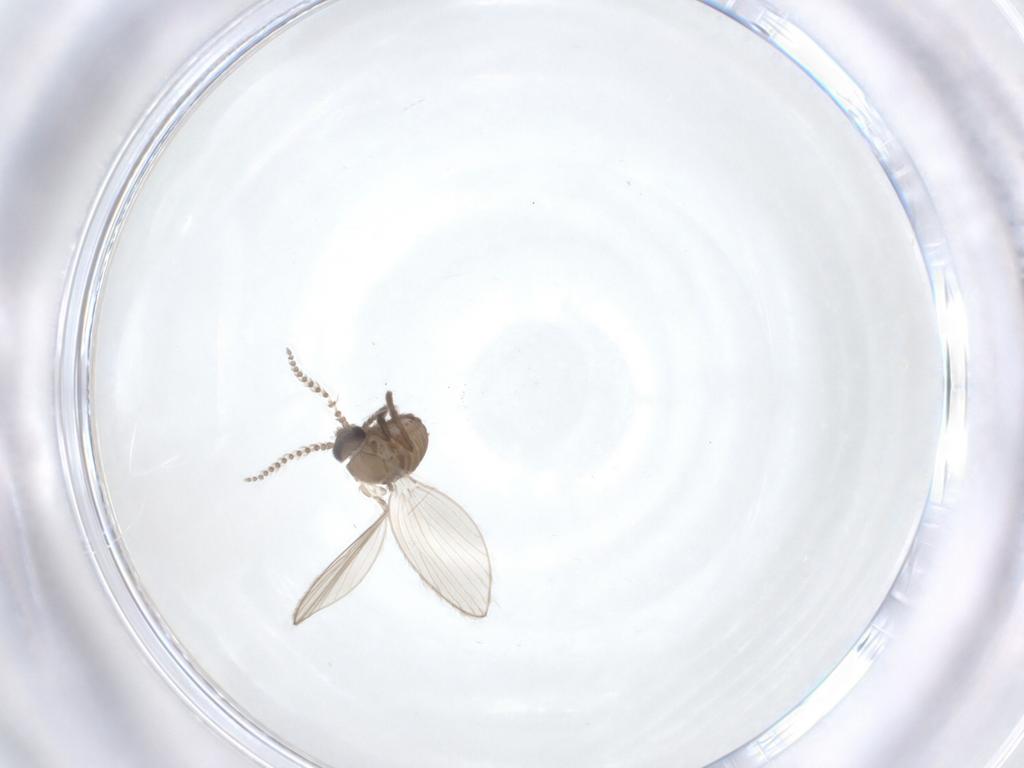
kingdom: Animalia
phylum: Arthropoda
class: Insecta
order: Diptera
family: Psychodidae
